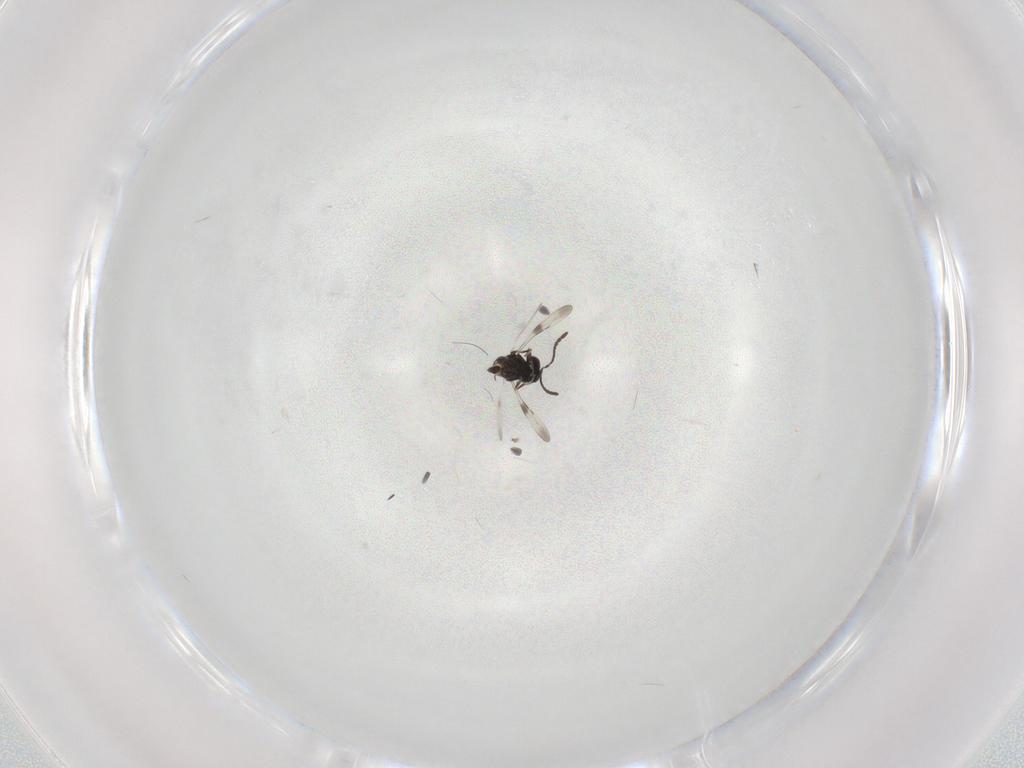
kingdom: Animalia
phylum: Arthropoda
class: Insecta
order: Hymenoptera
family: Ceraphronidae
